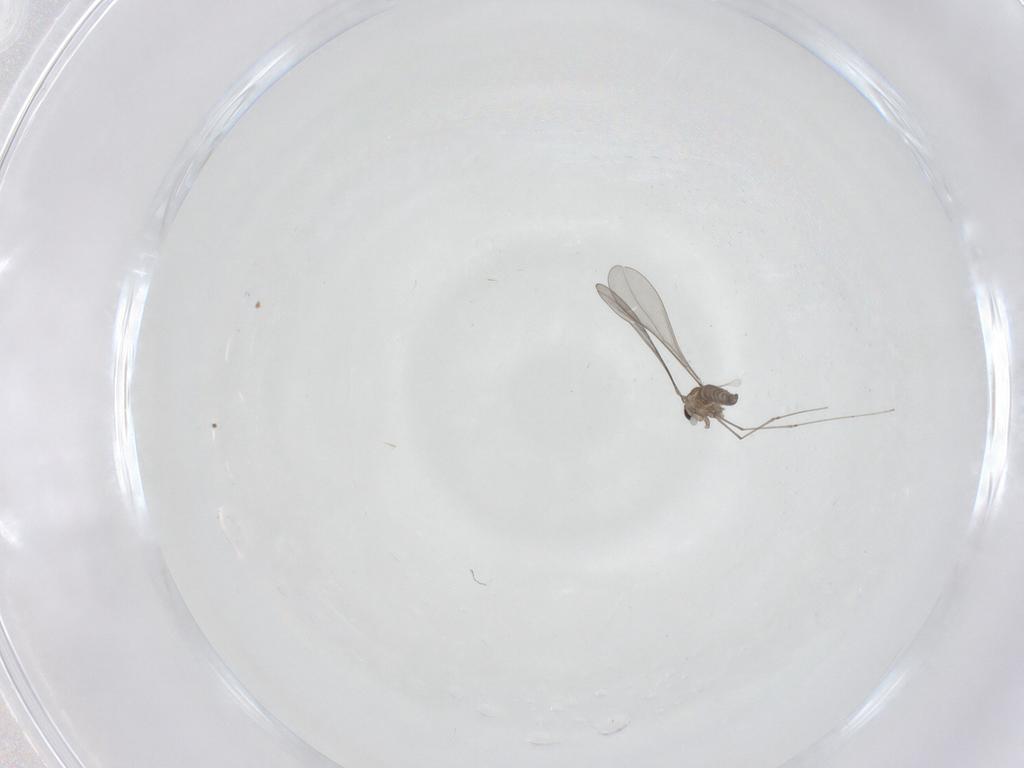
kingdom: Animalia
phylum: Arthropoda
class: Insecta
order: Diptera
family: Cecidomyiidae
